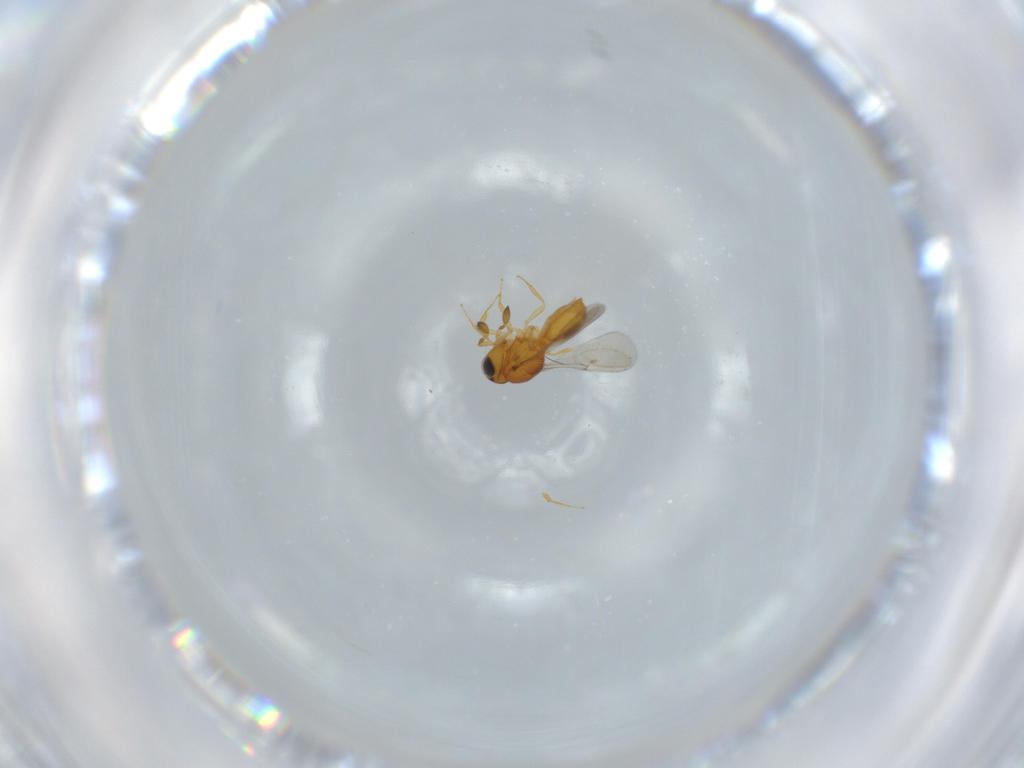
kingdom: Animalia
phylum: Arthropoda
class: Insecta
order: Hymenoptera
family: Scelionidae
